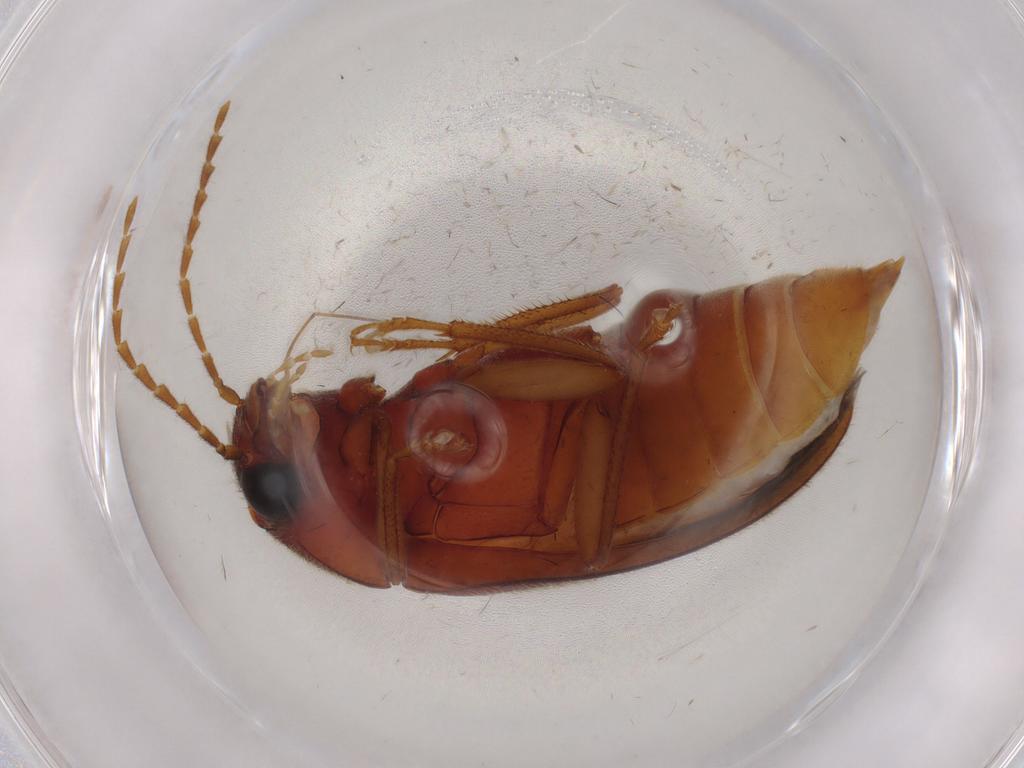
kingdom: Animalia
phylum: Arthropoda
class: Insecta
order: Coleoptera
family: Ptilodactylidae
